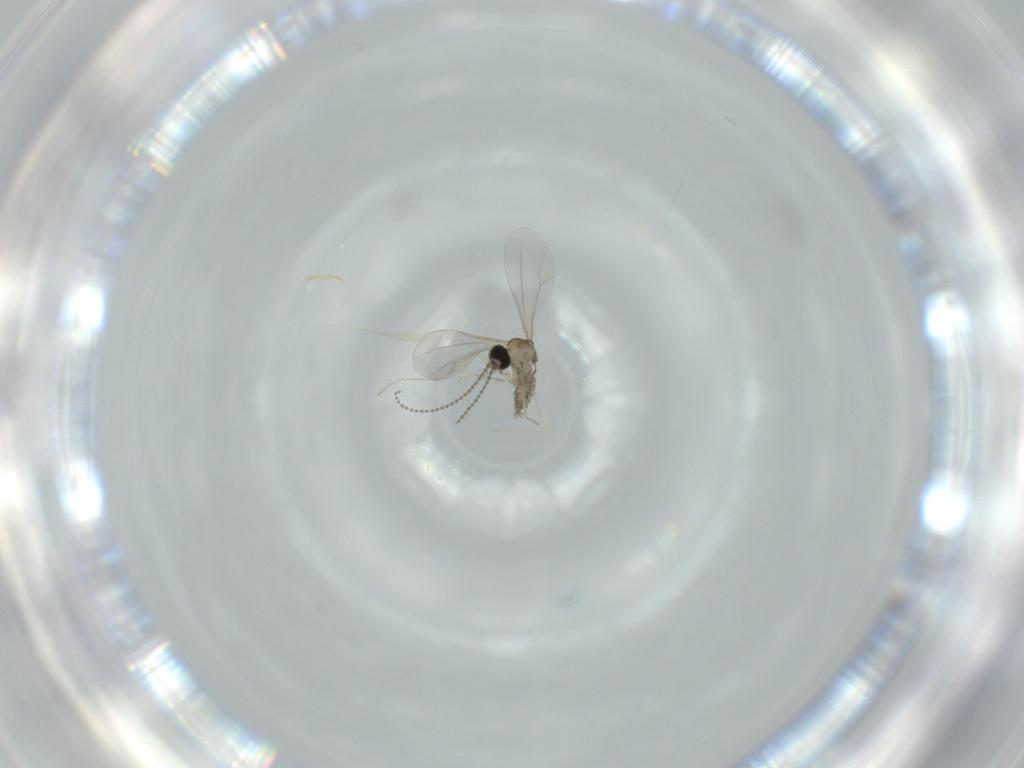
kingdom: Animalia
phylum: Arthropoda
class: Insecta
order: Diptera
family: Cecidomyiidae
